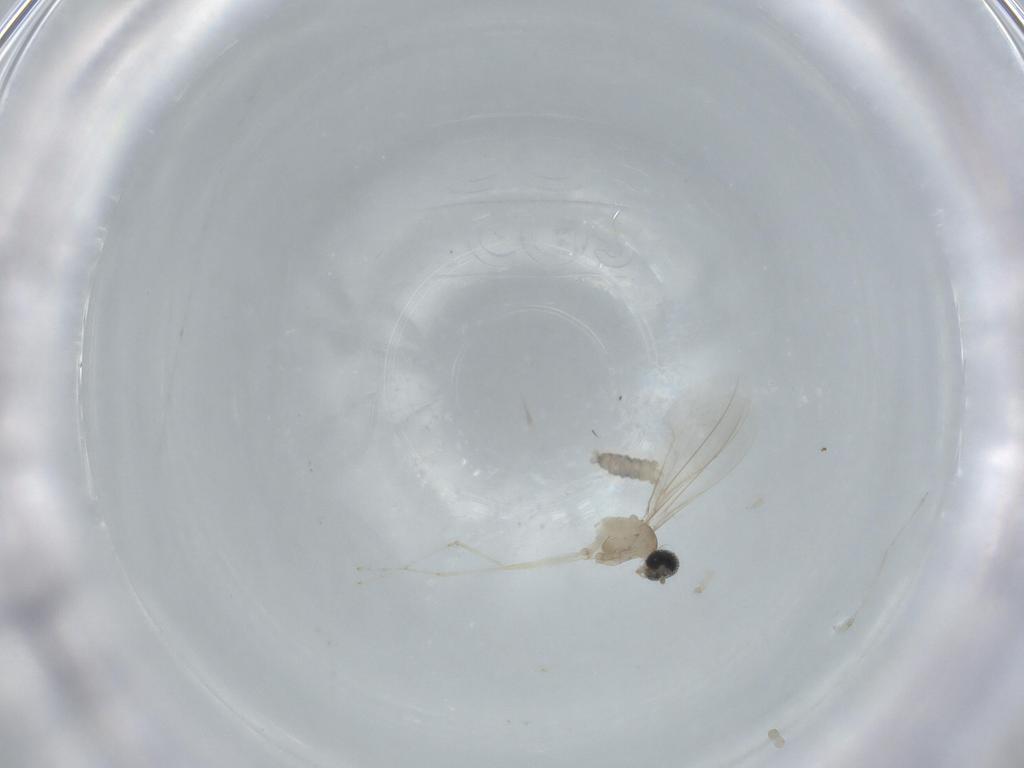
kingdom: Animalia
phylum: Arthropoda
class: Insecta
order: Diptera
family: Cecidomyiidae
